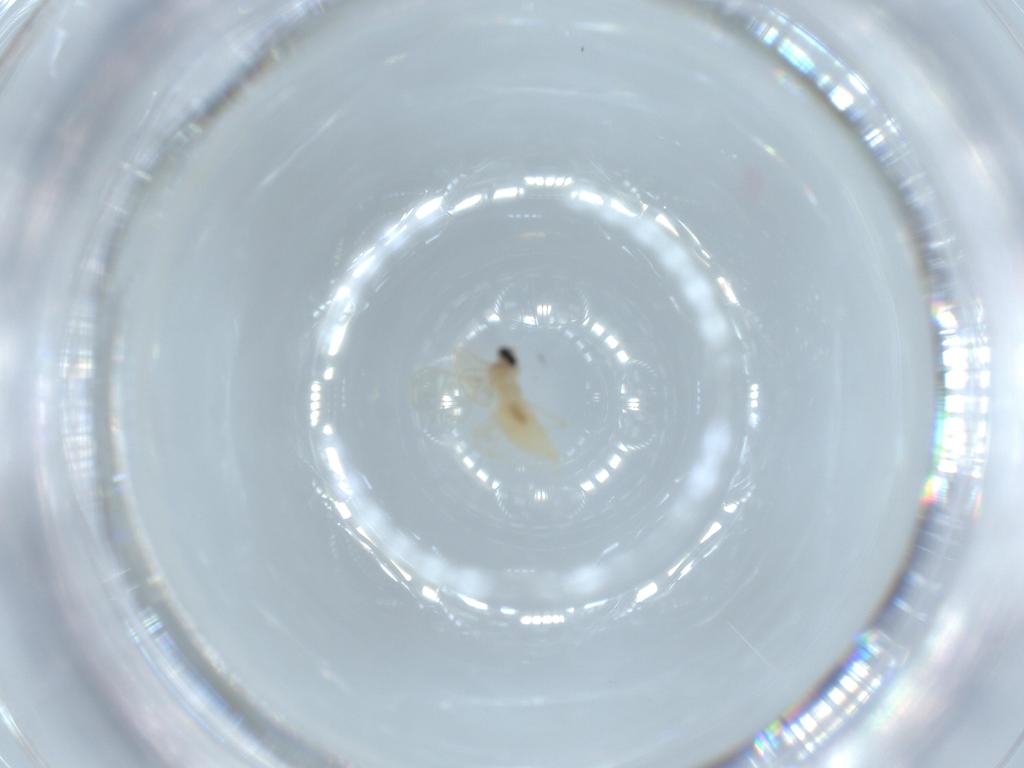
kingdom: Animalia
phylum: Arthropoda
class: Insecta
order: Diptera
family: Cecidomyiidae
